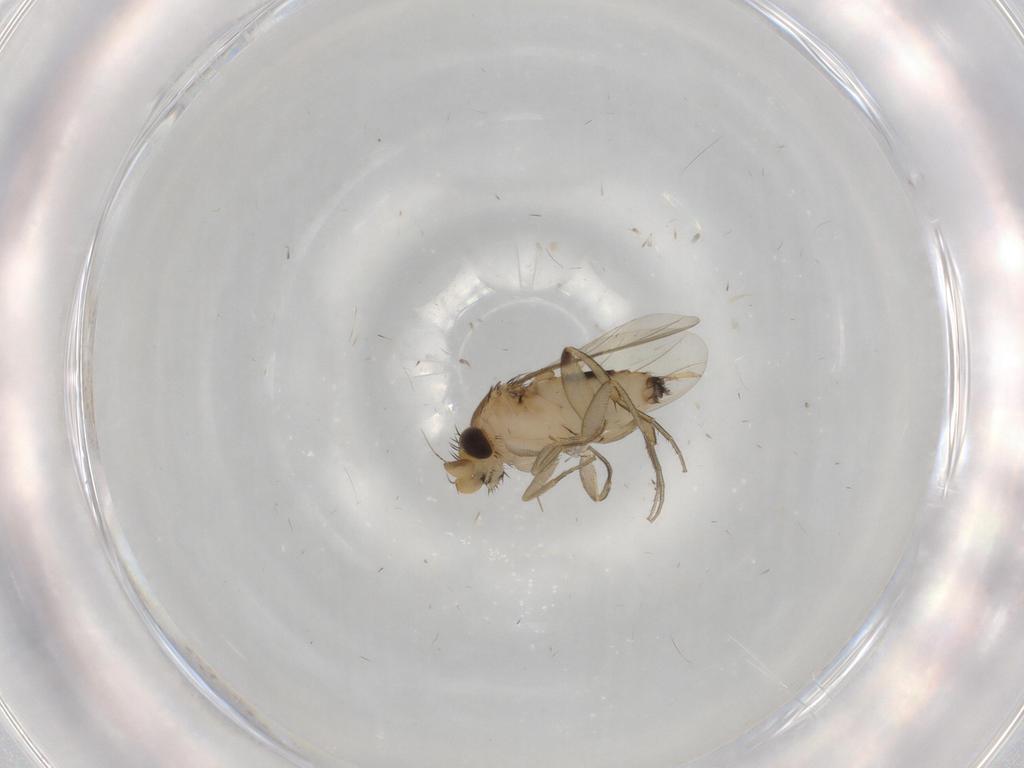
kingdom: Animalia
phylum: Arthropoda
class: Insecta
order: Diptera
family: Phoridae
